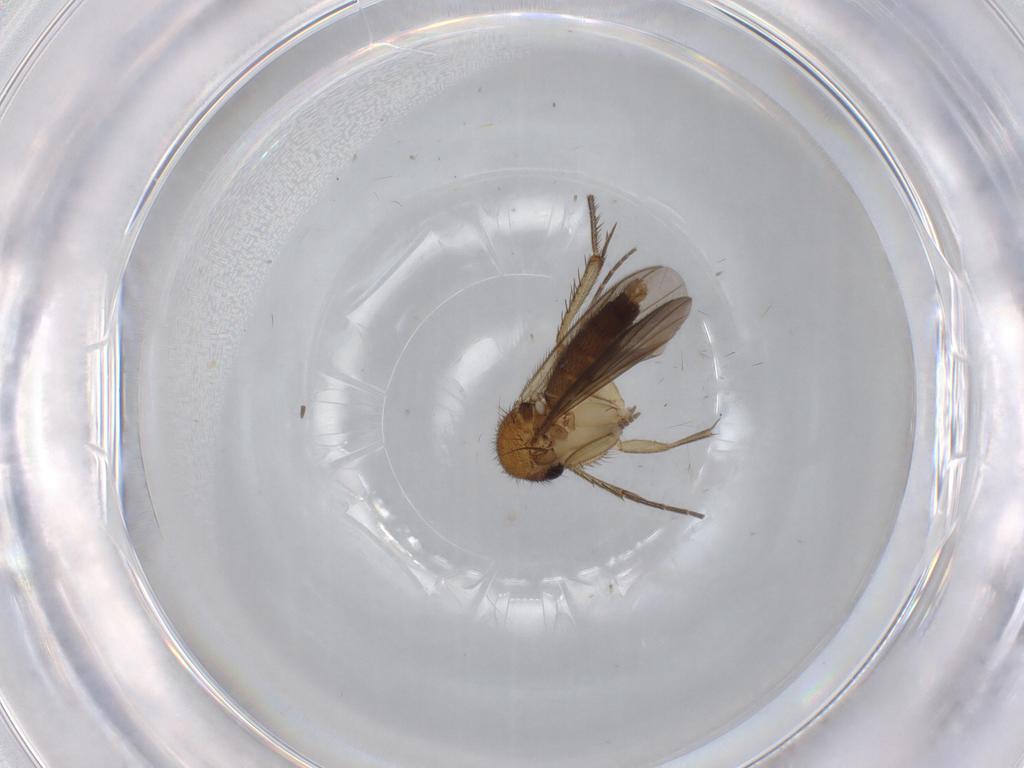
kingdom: Animalia
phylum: Arthropoda
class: Insecta
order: Diptera
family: Mycetophilidae
